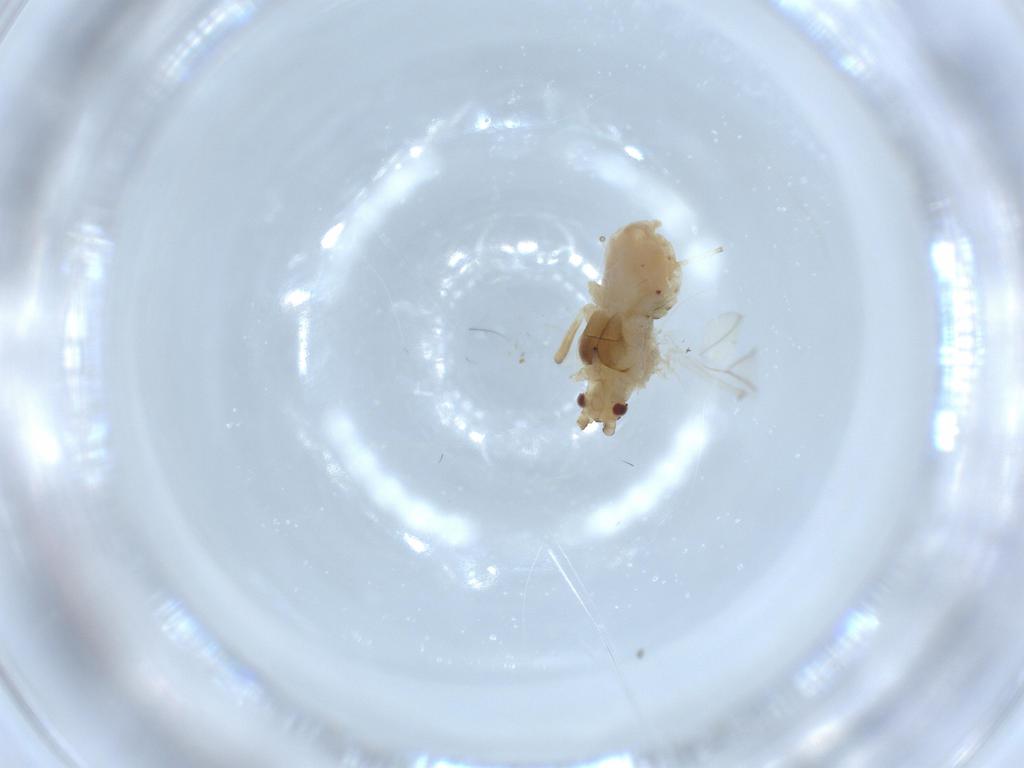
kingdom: Animalia
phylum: Arthropoda
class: Insecta
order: Hemiptera
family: Aphididae
